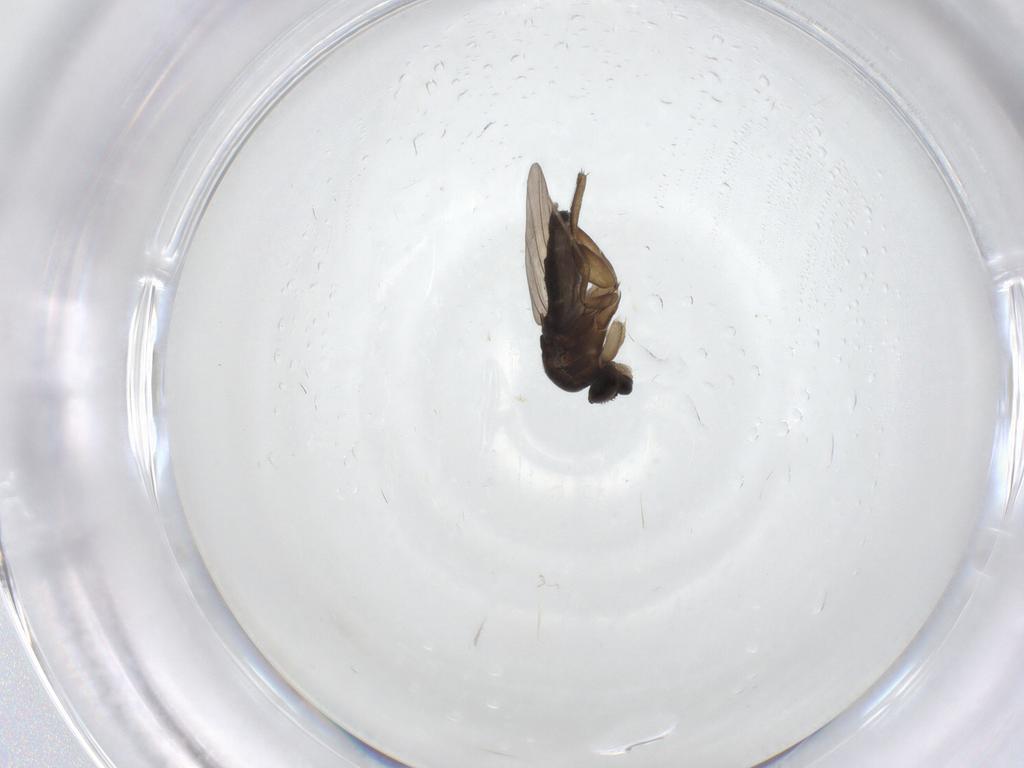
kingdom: Animalia
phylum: Arthropoda
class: Insecta
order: Diptera
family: Phoridae
